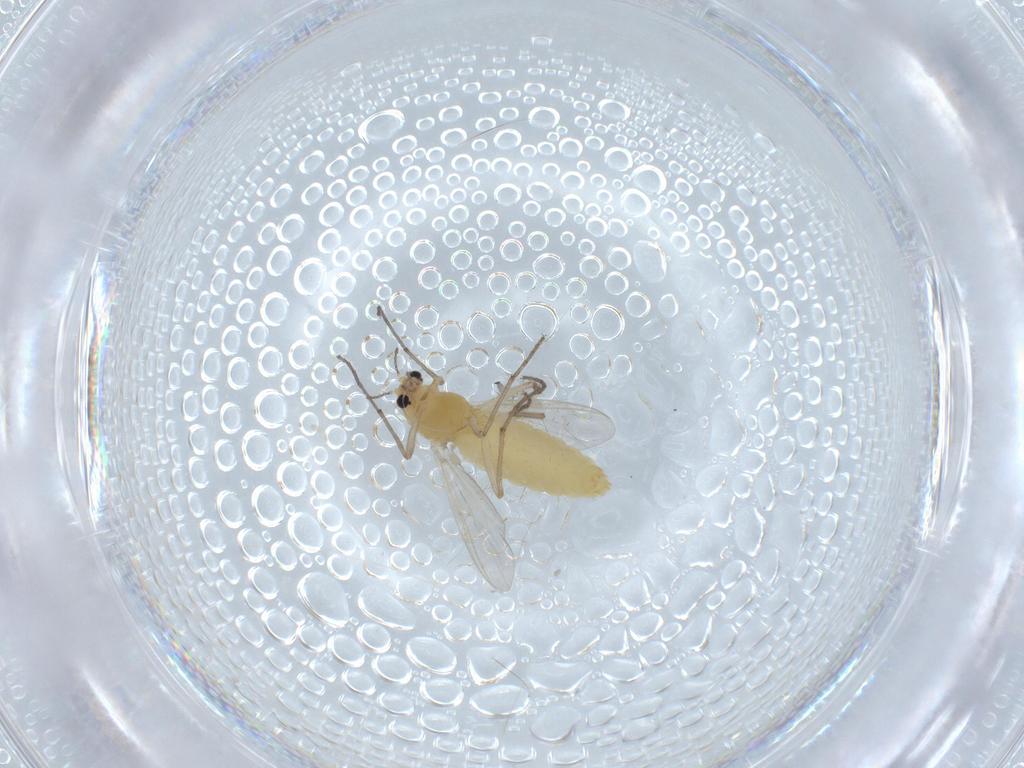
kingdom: Animalia
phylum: Arthropoda
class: Insecta
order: Diptera
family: Chironomidae
